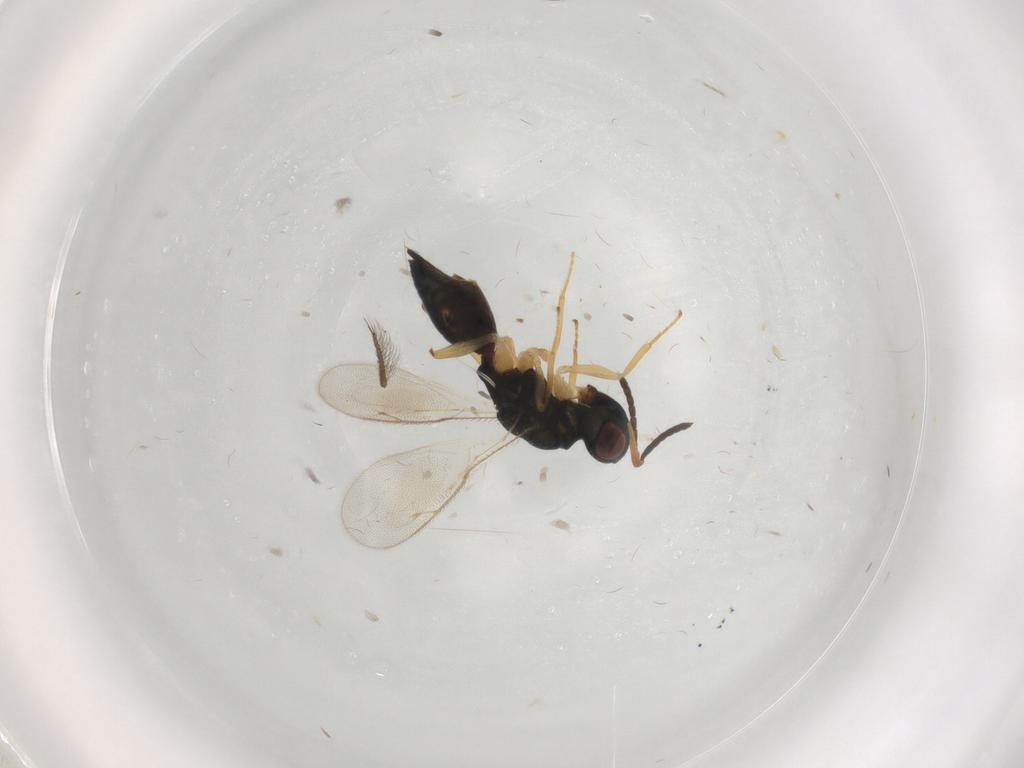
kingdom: Animalia
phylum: Arthropoda
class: Insecta
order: Hymenoptera
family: Pteromalidae
